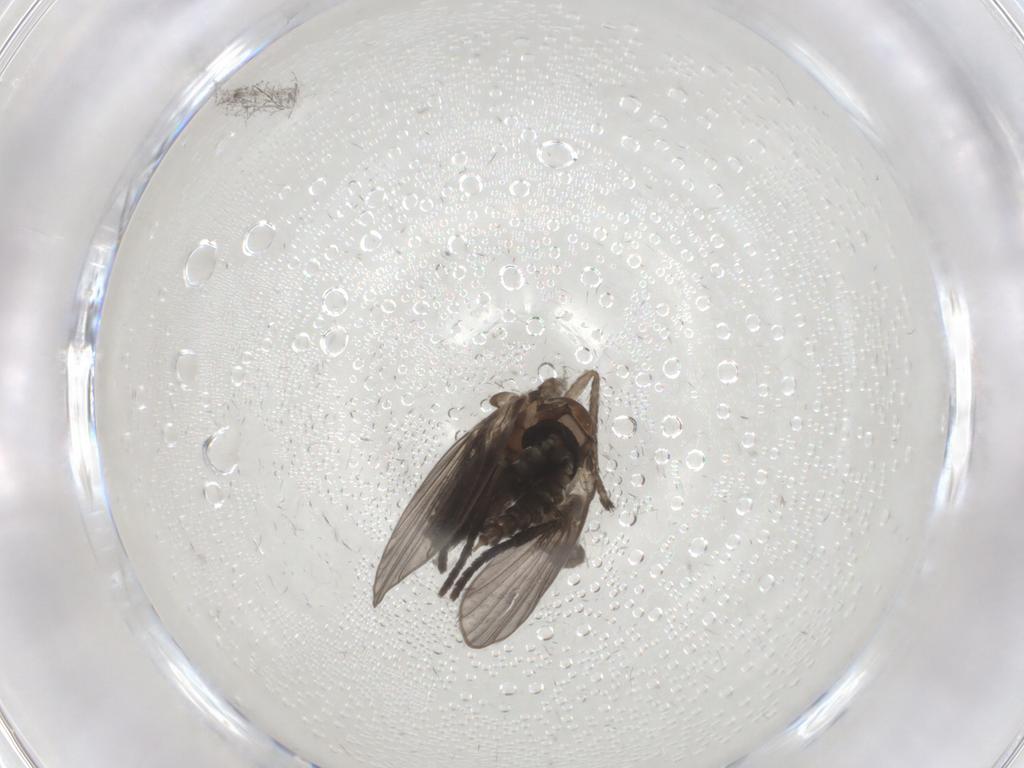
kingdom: Animalia
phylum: Arthropoda
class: Insecta
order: Diptera
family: Psychodidae
